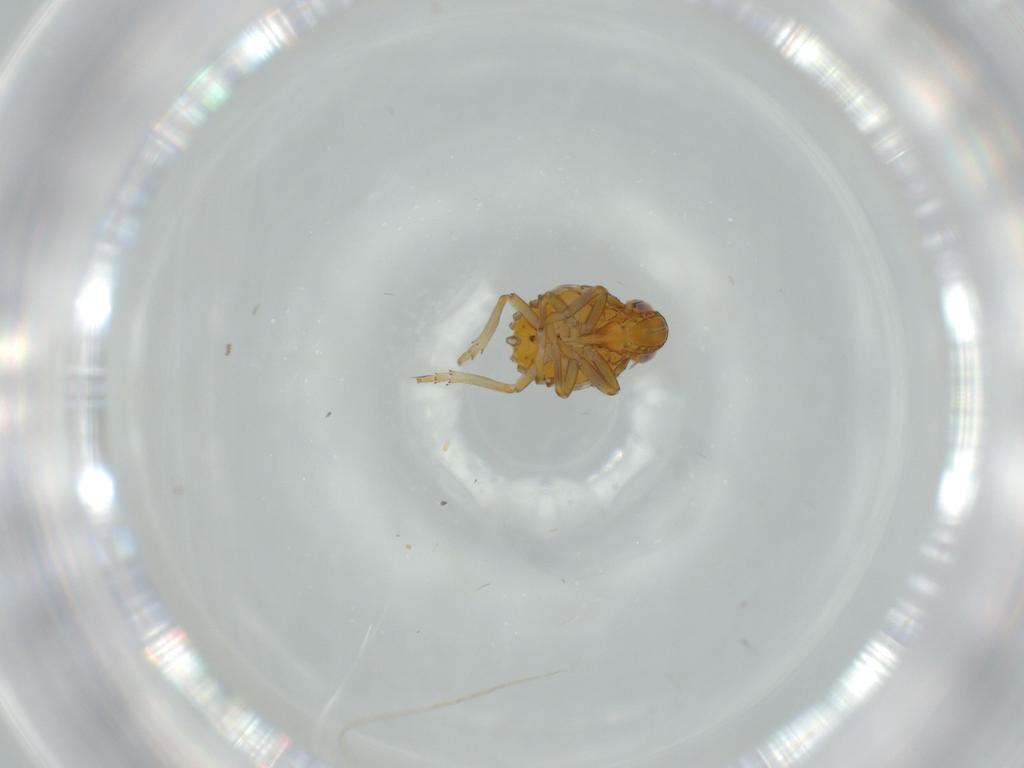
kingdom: Animalia
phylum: Arthropoda
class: Insecta
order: Hemiptera
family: Issidae
